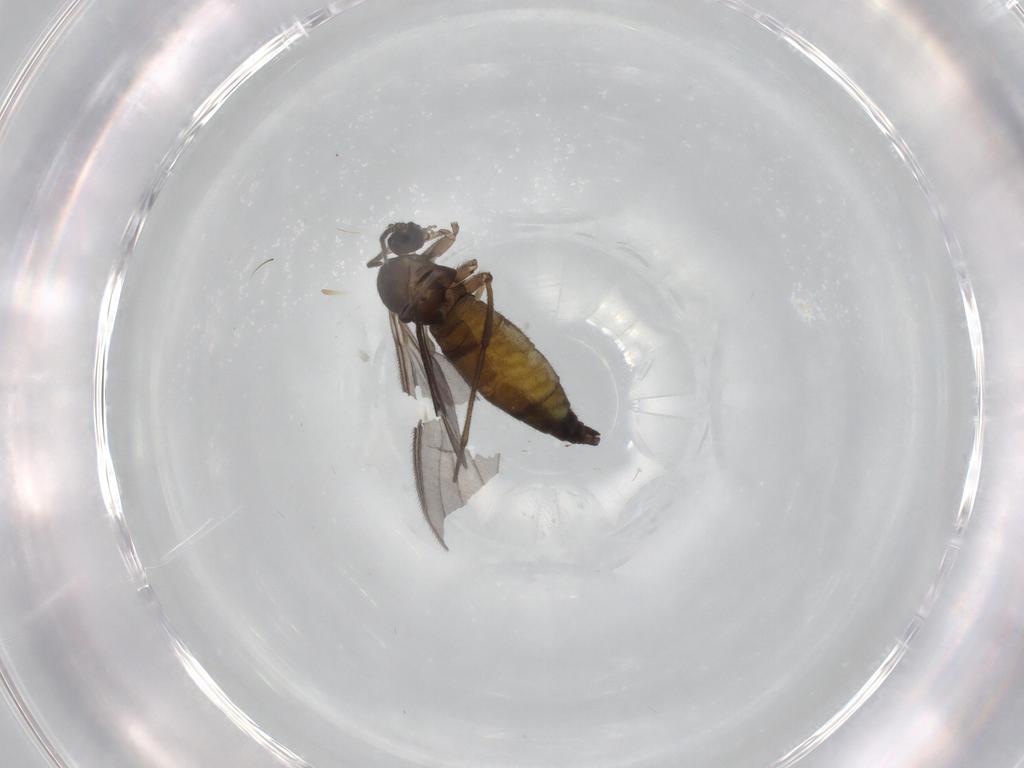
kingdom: Animalia
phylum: Arthropoda
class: Insecta
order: Diptera
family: Sciaridae
